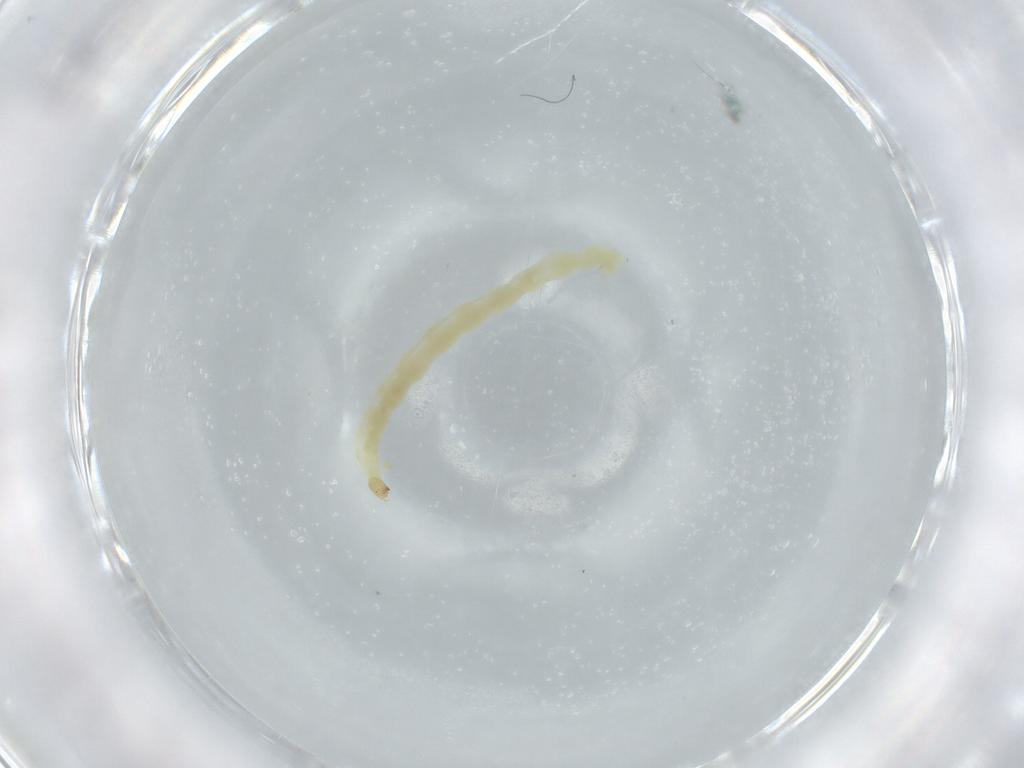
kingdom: Animalia
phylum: Arthropoda
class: Insecta
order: Diptera
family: Chironomidae
